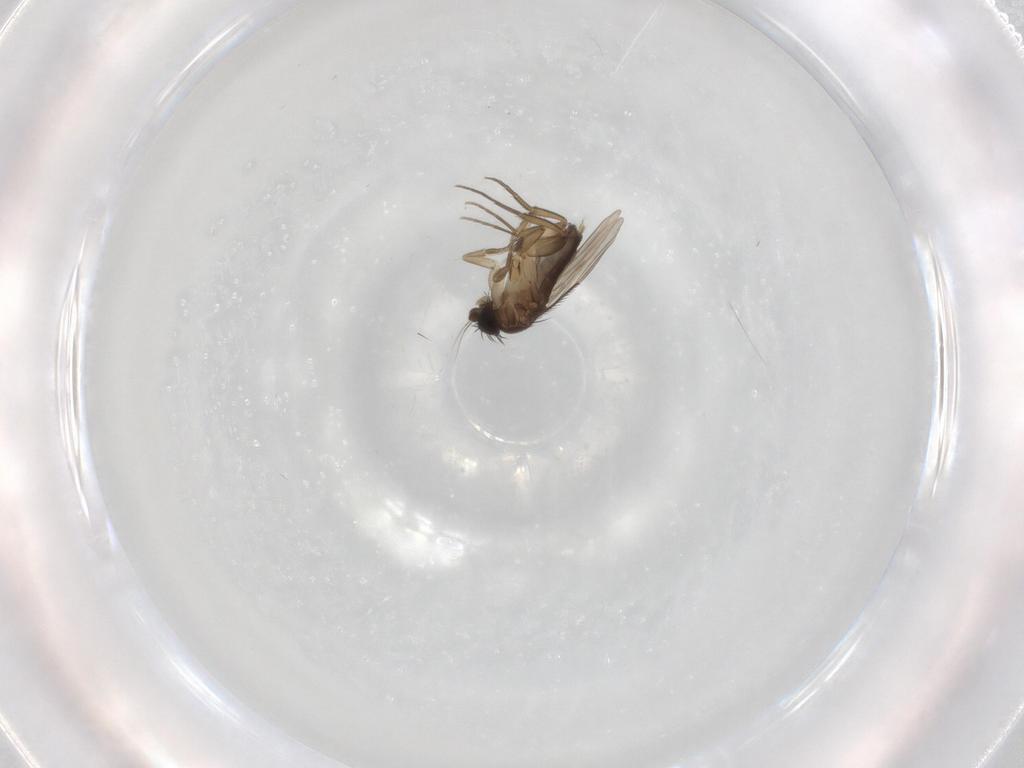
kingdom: Animalia
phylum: Arthropoda
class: Insecta
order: Diptera
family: Phoridae
